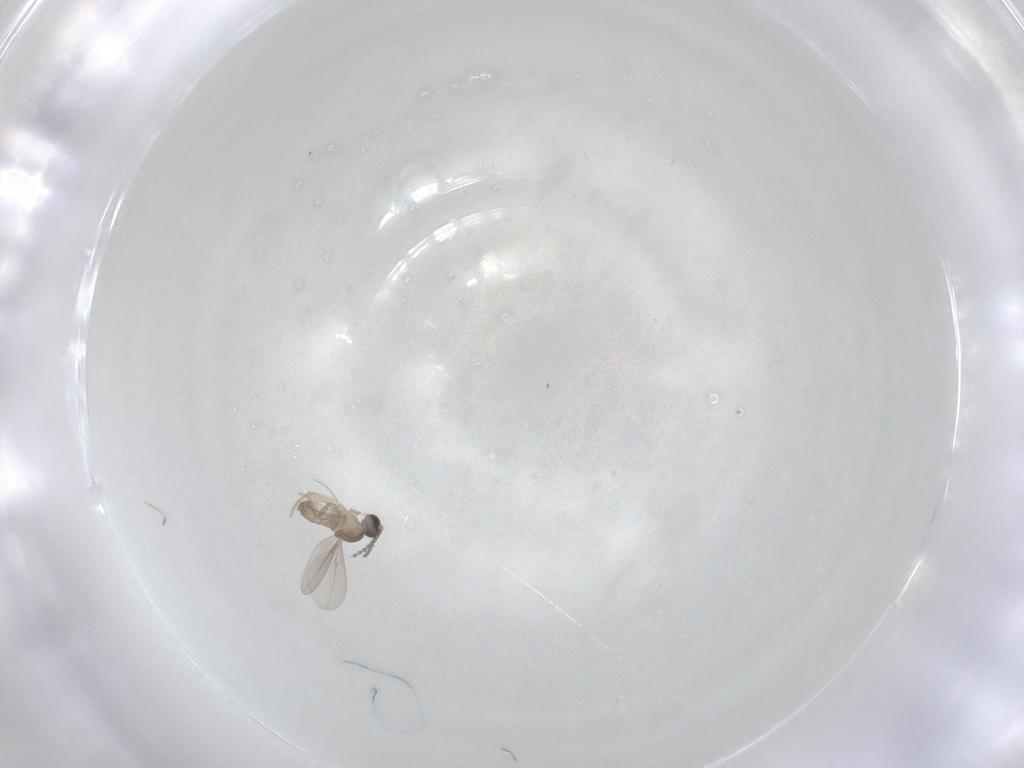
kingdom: Animalia
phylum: Arthropoda
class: Insecta
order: Diptera
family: Cecidomyiidae
